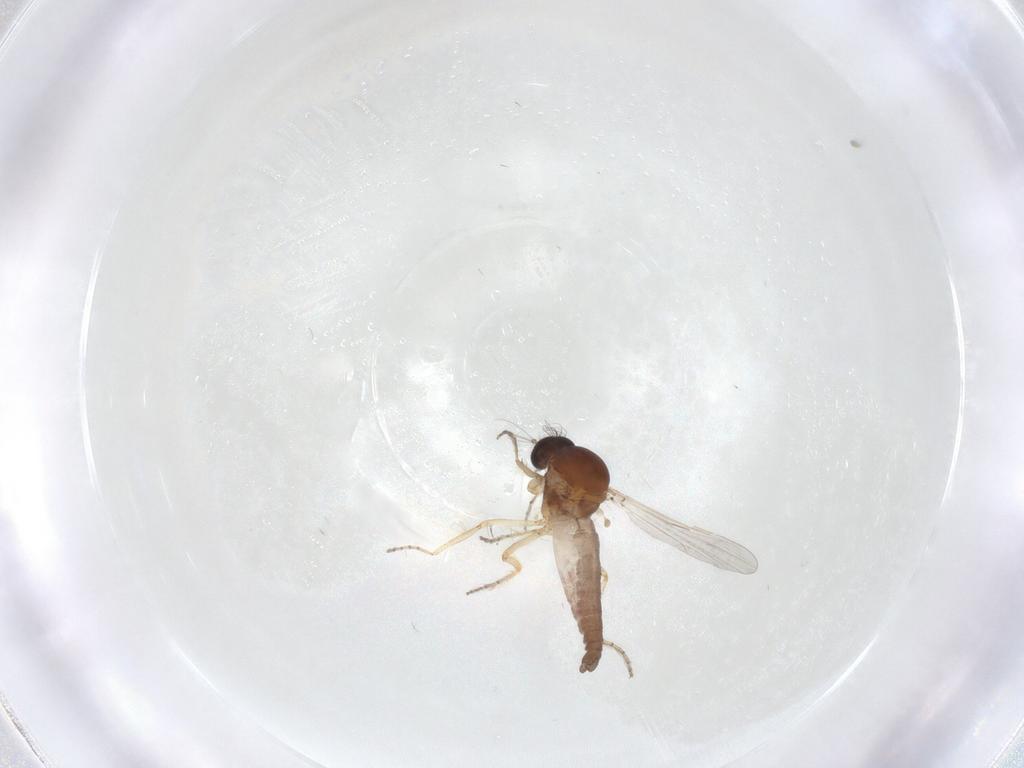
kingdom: Animalia
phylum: Arthropoda
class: Insecta
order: Diptera
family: Ceratopogonidae
